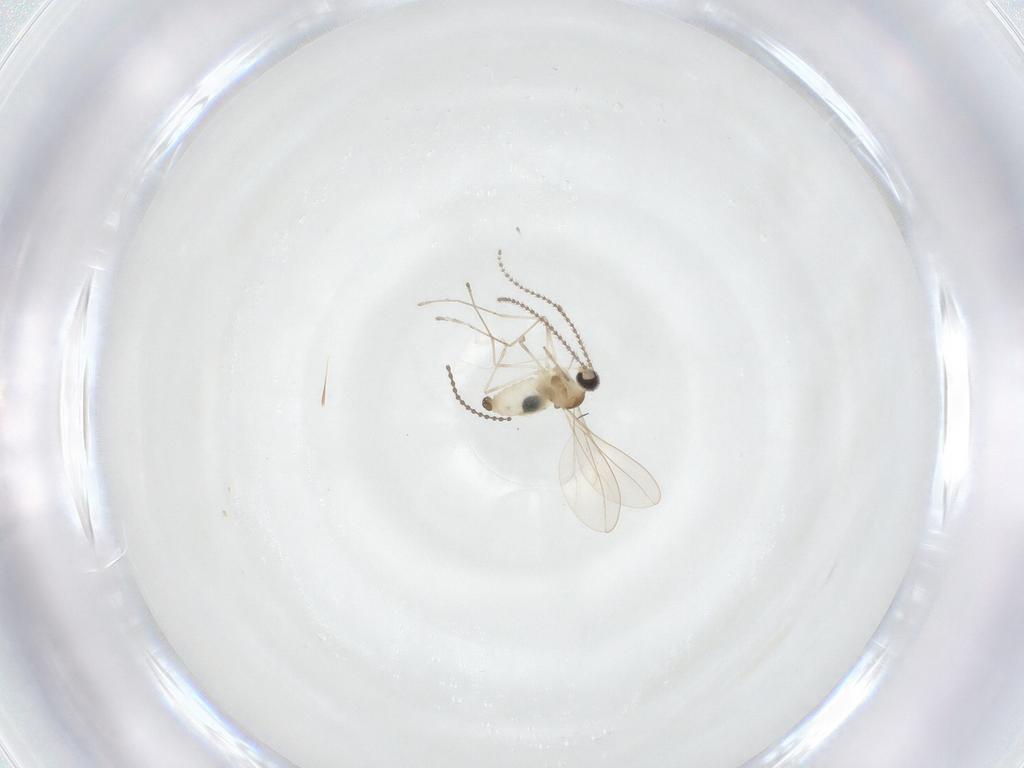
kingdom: Animalia
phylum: Arthropoda
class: Insecta
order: Diptera
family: Cecidomyiidae
